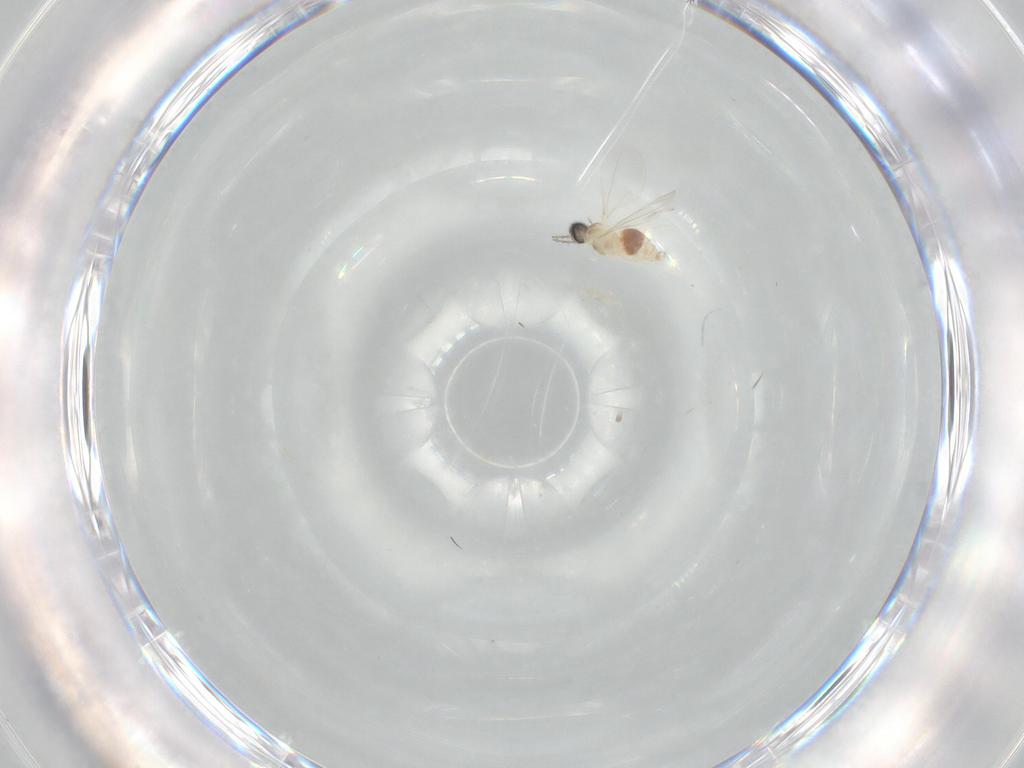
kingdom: Animalia
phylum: Arthropoda
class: Insecta
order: Diptera
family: Cecidomyiidae
